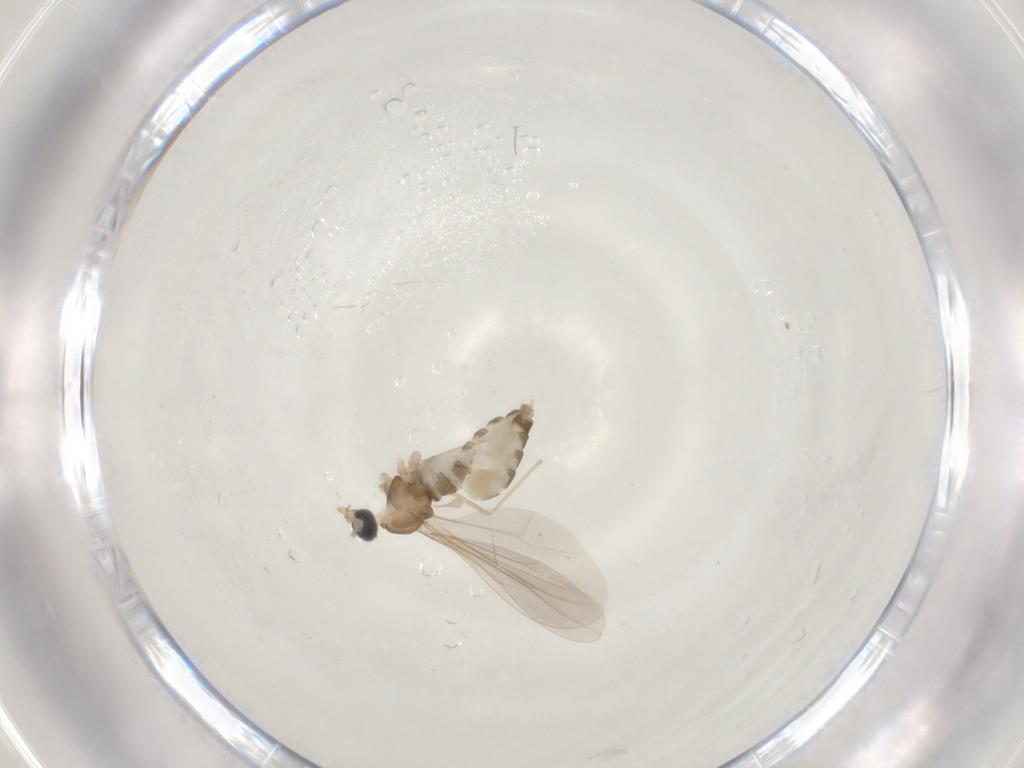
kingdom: Animalia
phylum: Arthropoda
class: Insecta
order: Diptera
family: Cecidomyiidae
